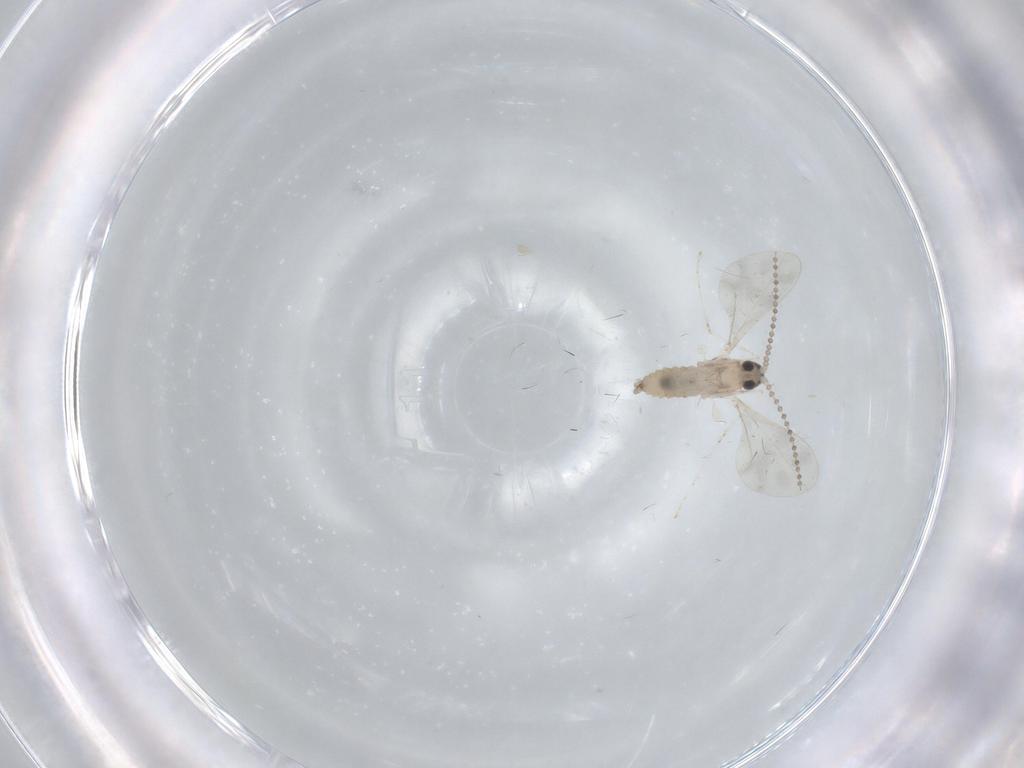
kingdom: Animalia
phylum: Arthropoda
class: Insecta
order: Diptera
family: Cecidomyiidae
